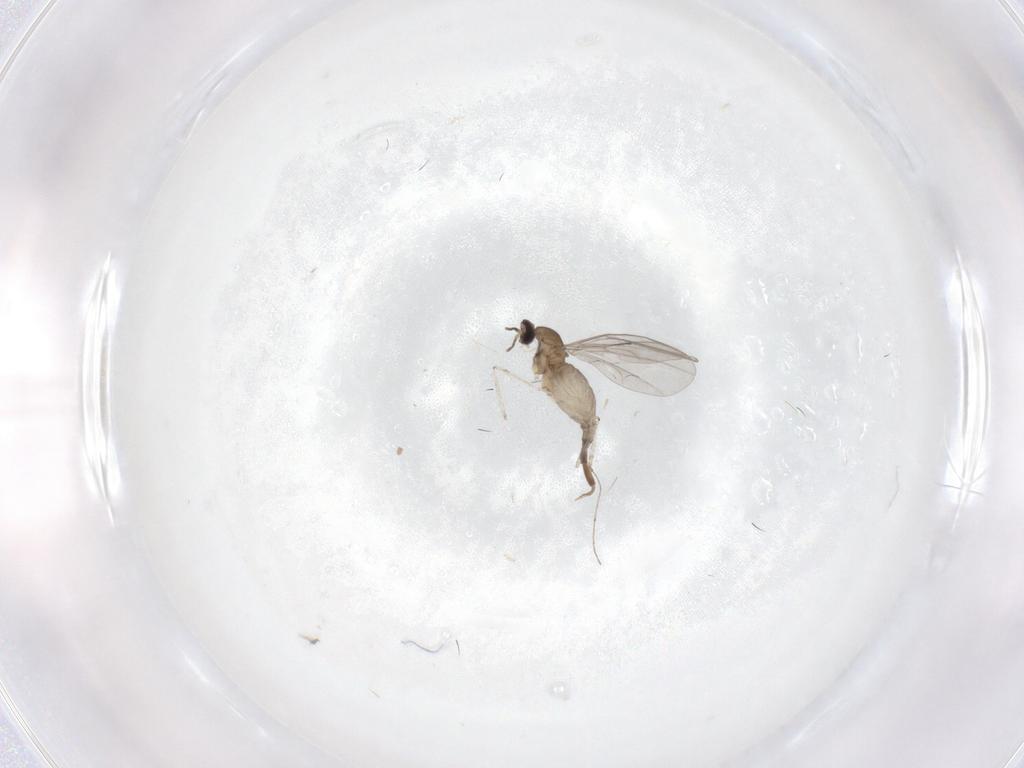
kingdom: Animalia
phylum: Arthropoda
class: Insecta
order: Diptera
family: Cecidomyiidae
